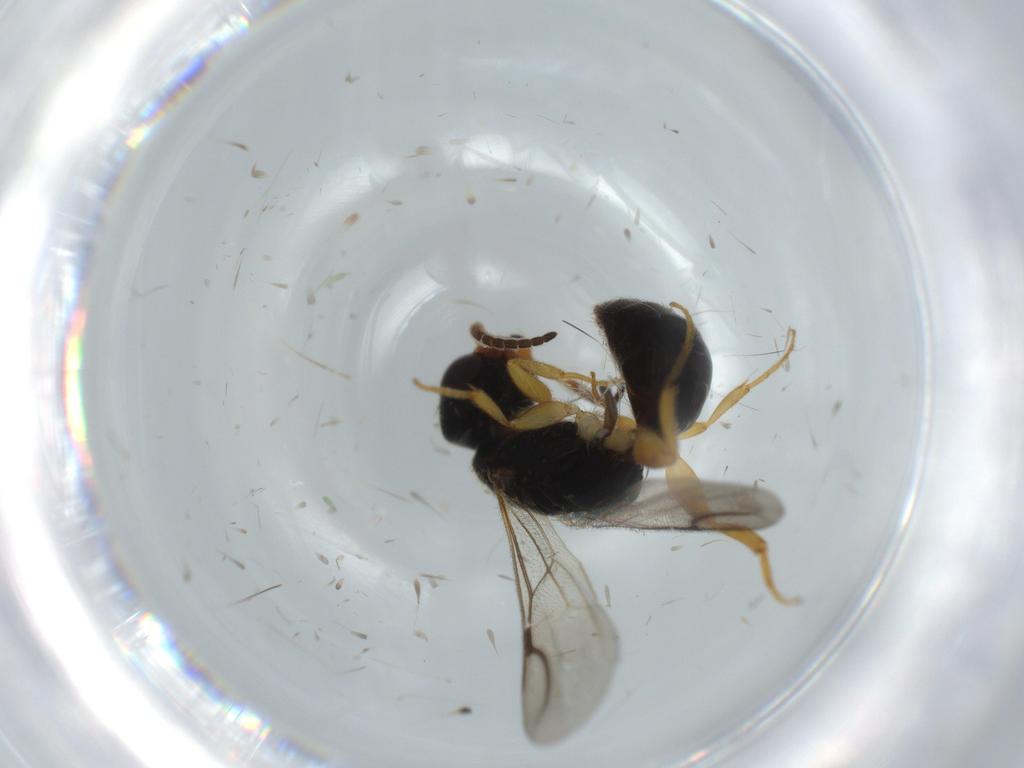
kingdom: Animalia
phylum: Arthropoda
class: Insecta
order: Hymenoptera
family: Bethylidae
